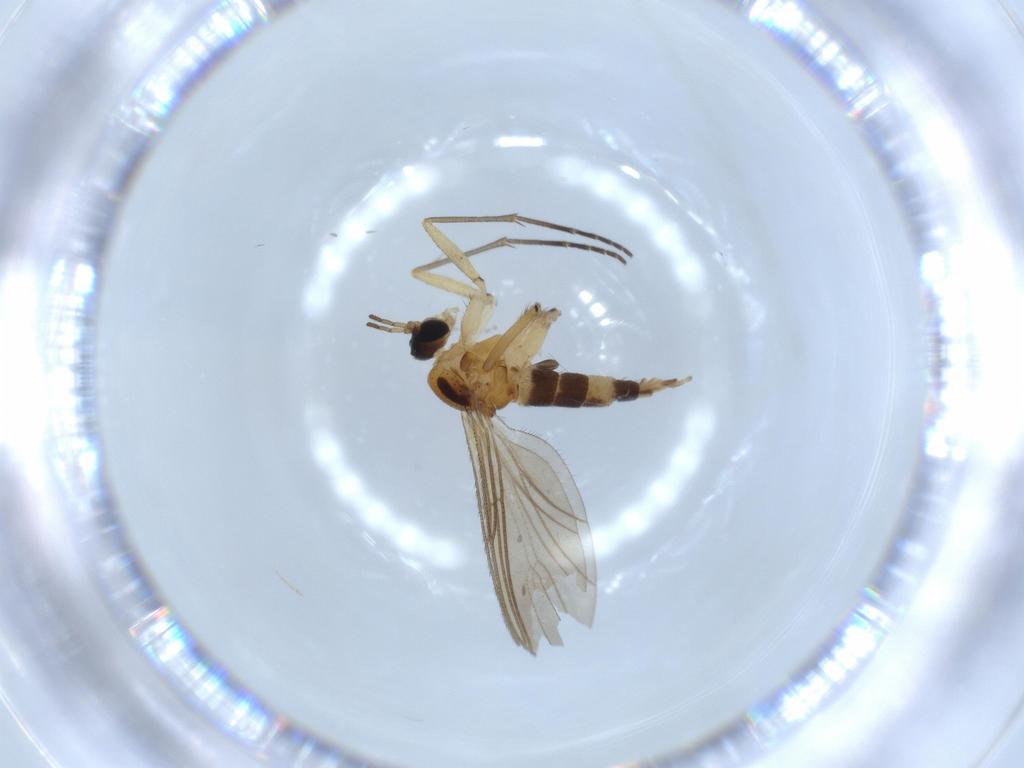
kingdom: Animalia
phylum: Arthropoda
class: Insecta
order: Diptera
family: Cecidomyiidae
